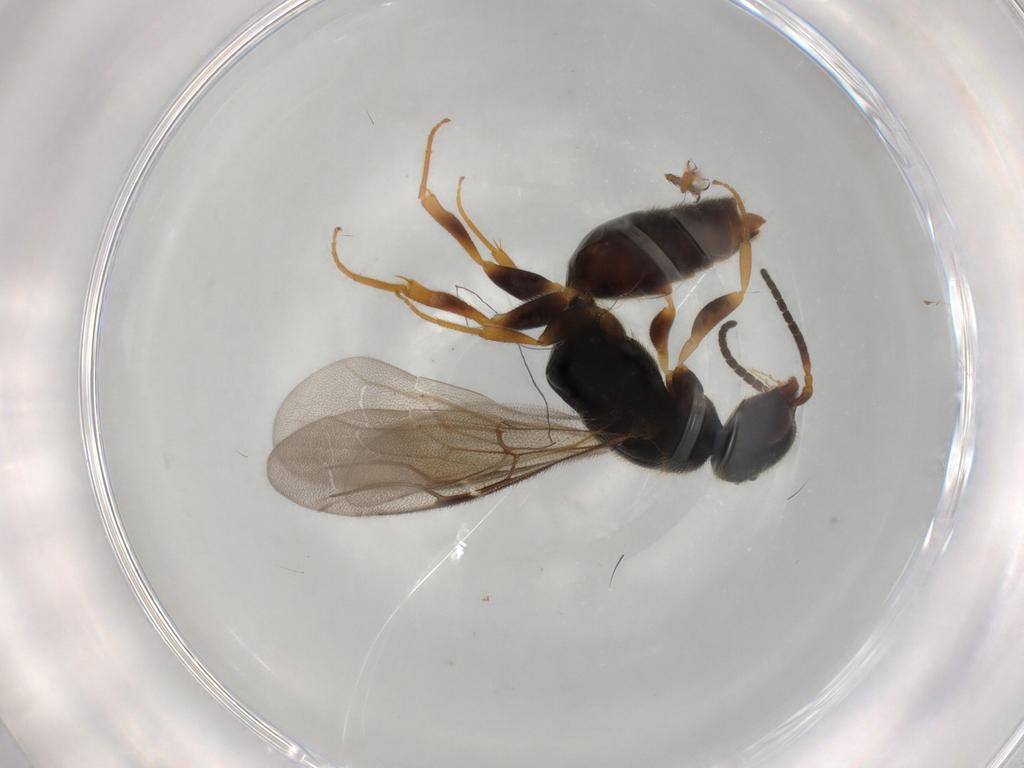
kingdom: Animalia
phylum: Arthropoda
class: Insecta
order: Hymenoptera
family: Bethylidae
